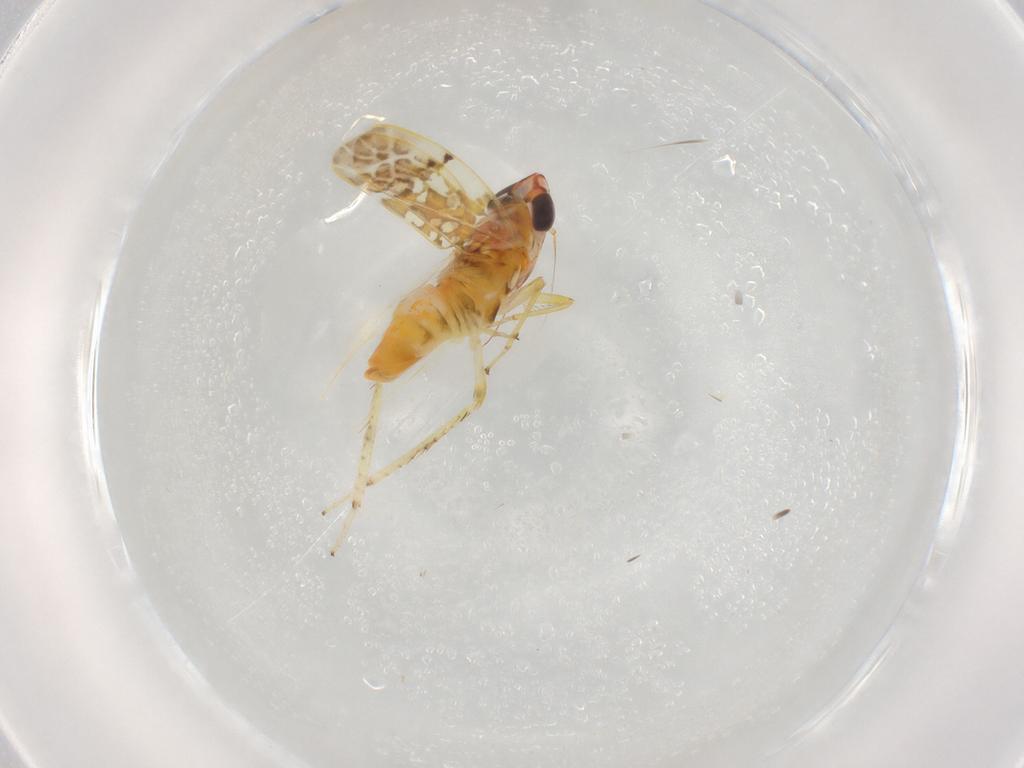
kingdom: Animalia
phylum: Arthropoda
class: Insecta
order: Hemiptera
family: Rhyparochromidae
